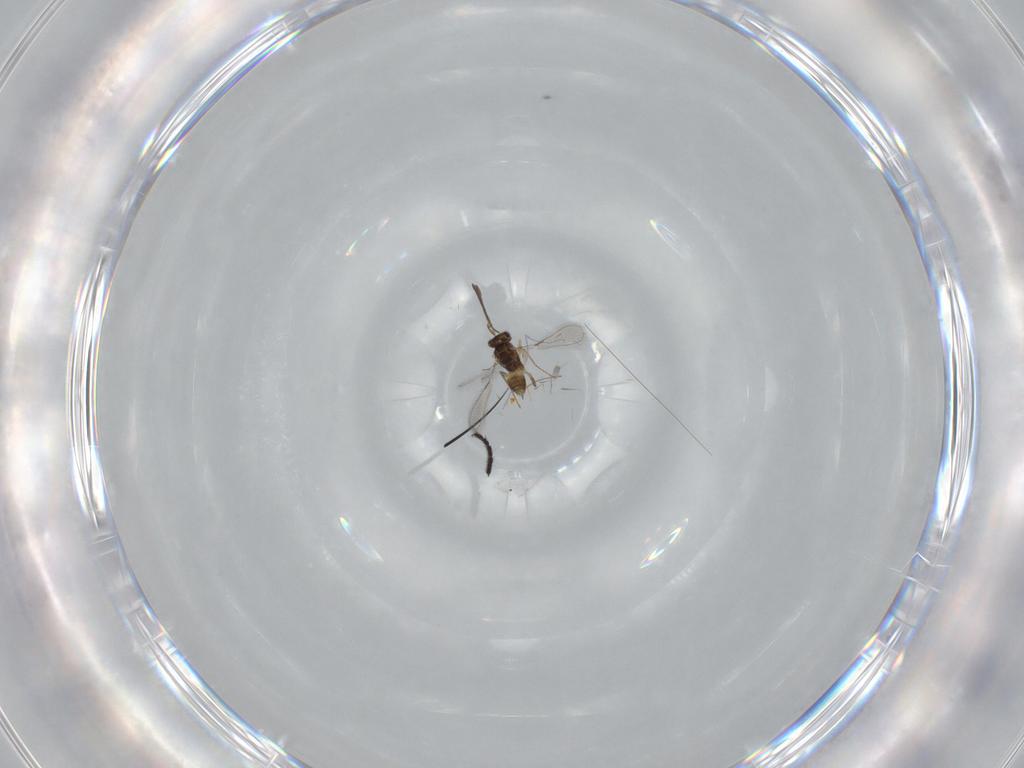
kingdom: Animalia
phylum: Arthropoda
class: Insecta
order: Hymenoptera
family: Mymaridae
